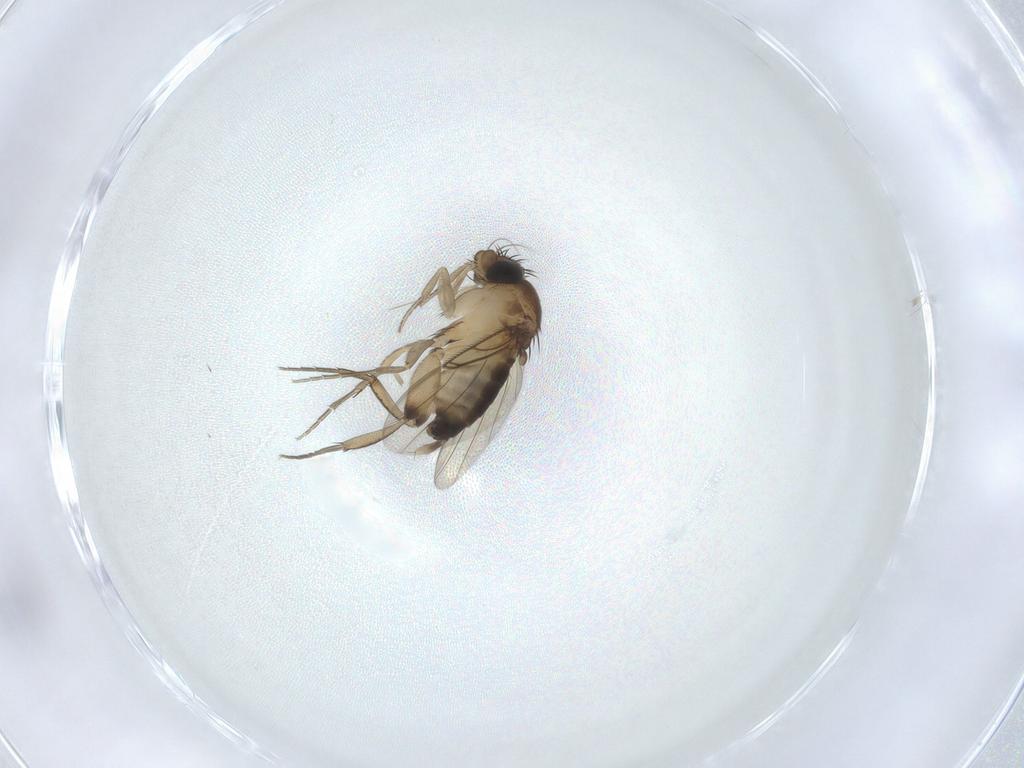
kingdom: Animalia
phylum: Arthropoda
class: Insecta
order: Diptera
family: Phoridae
